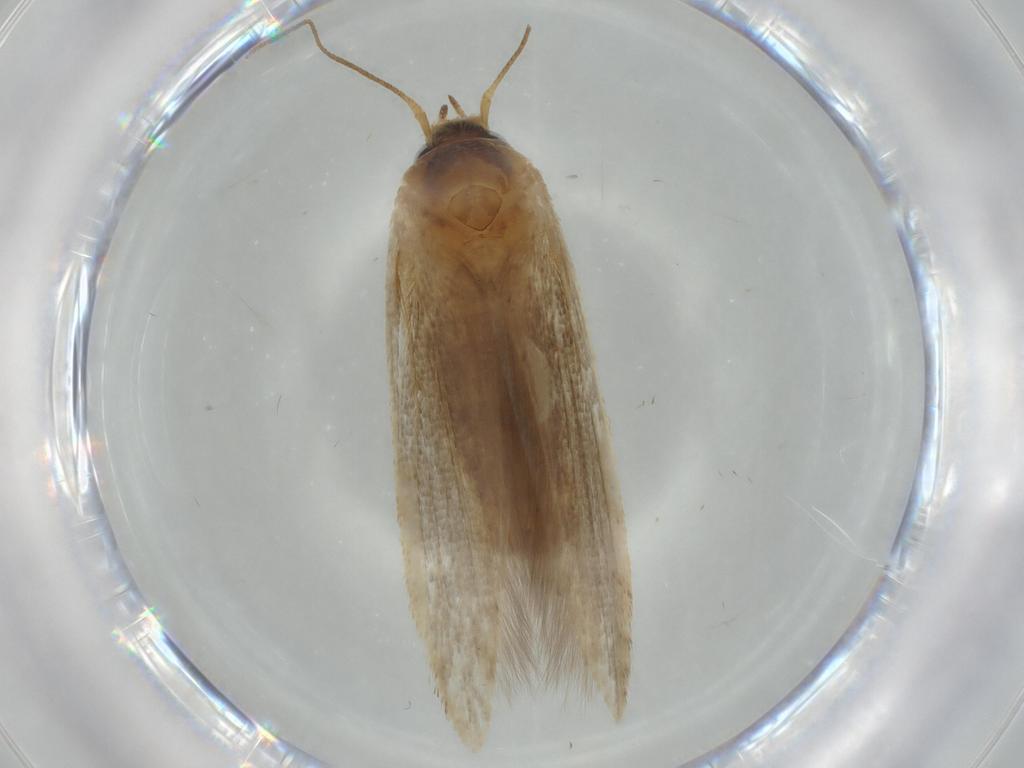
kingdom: Animalia
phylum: Arthropoda
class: Insecta
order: Lepidoptera
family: Blastobasidae
